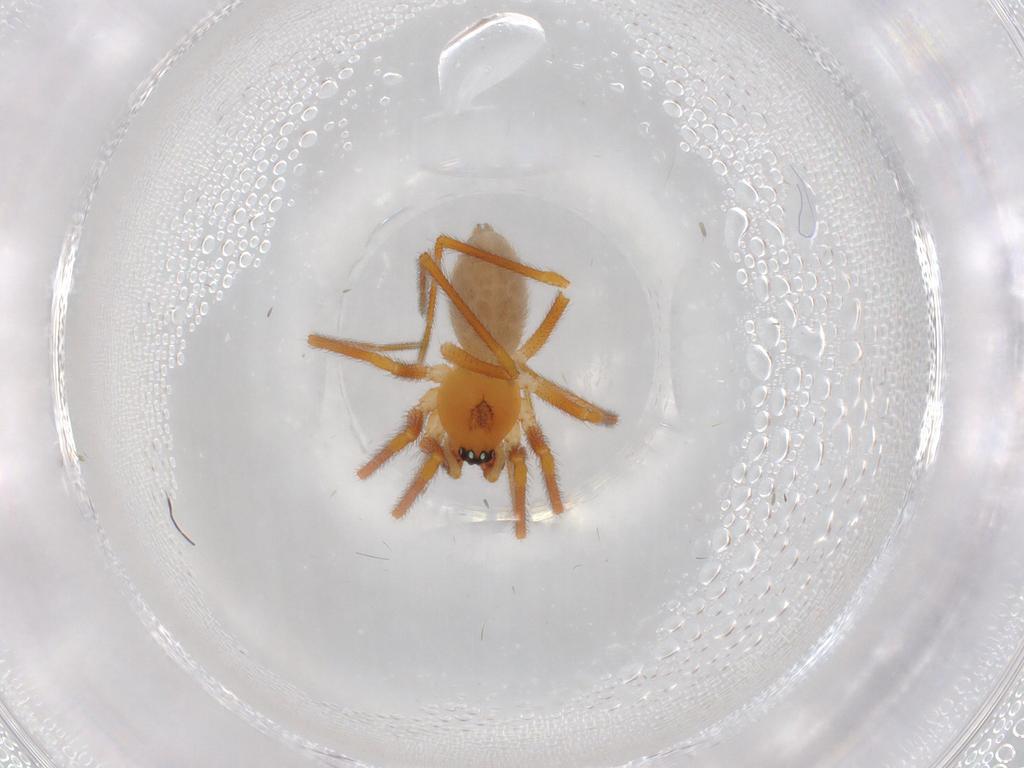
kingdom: Animalia
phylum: Arthropoda
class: Arachnida
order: Araneae
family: Linyphiidae
